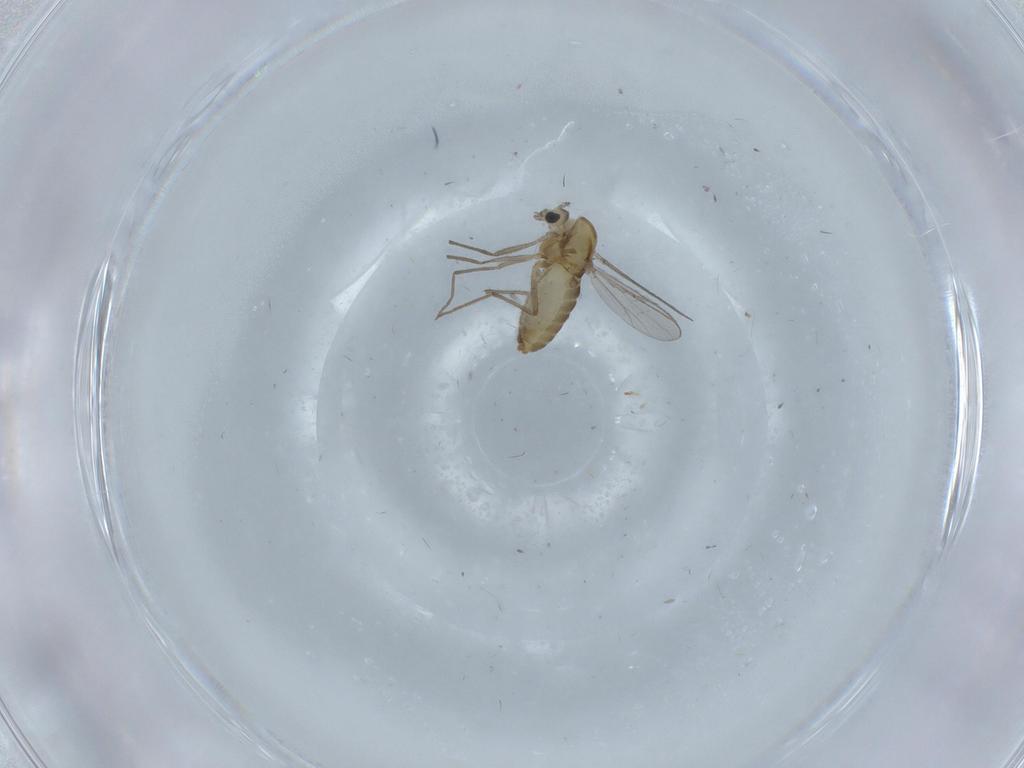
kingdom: Animalia
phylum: Arthropoda
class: Insecta
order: Diptera
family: Chironomidae
